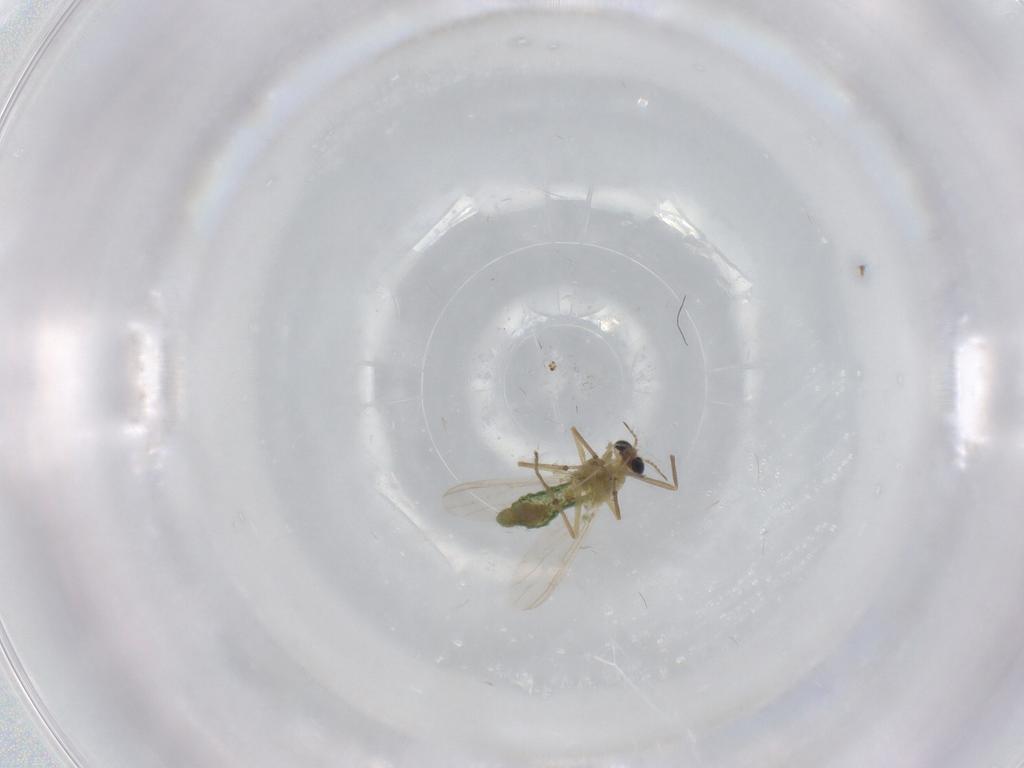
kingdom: Animalia
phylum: Arthropoda
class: Insecta
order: Diptera
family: Chironomidae
